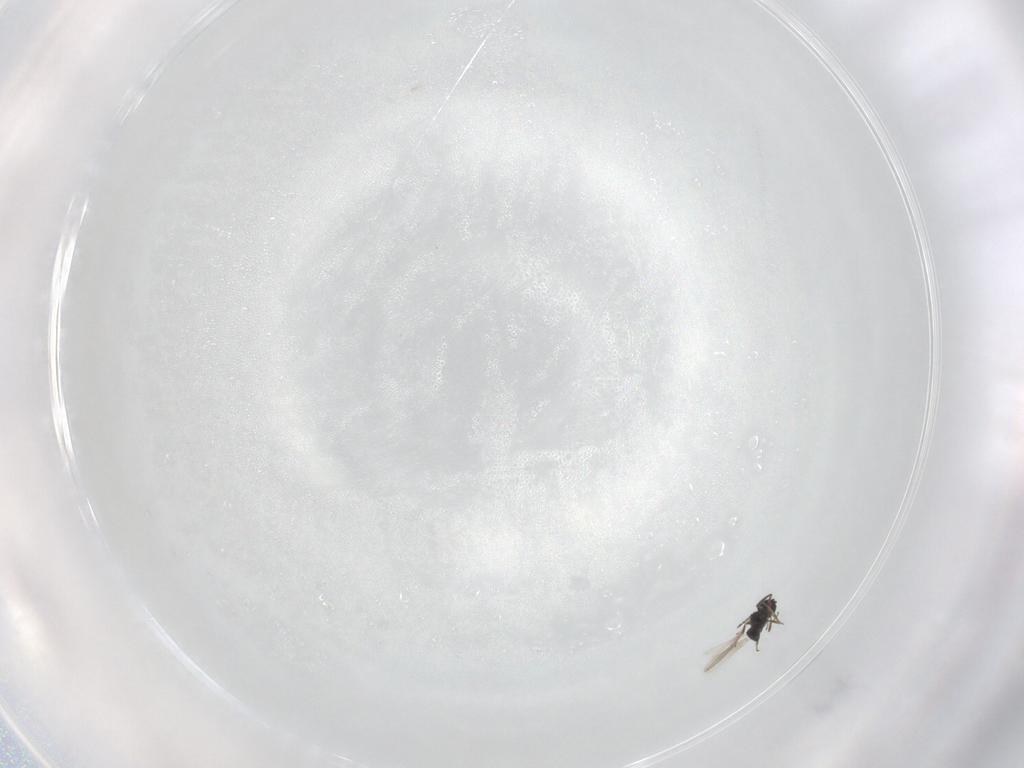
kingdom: Animalia
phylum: Arthropoda
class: Insecta
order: Hymenoptera
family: Scelionidae
